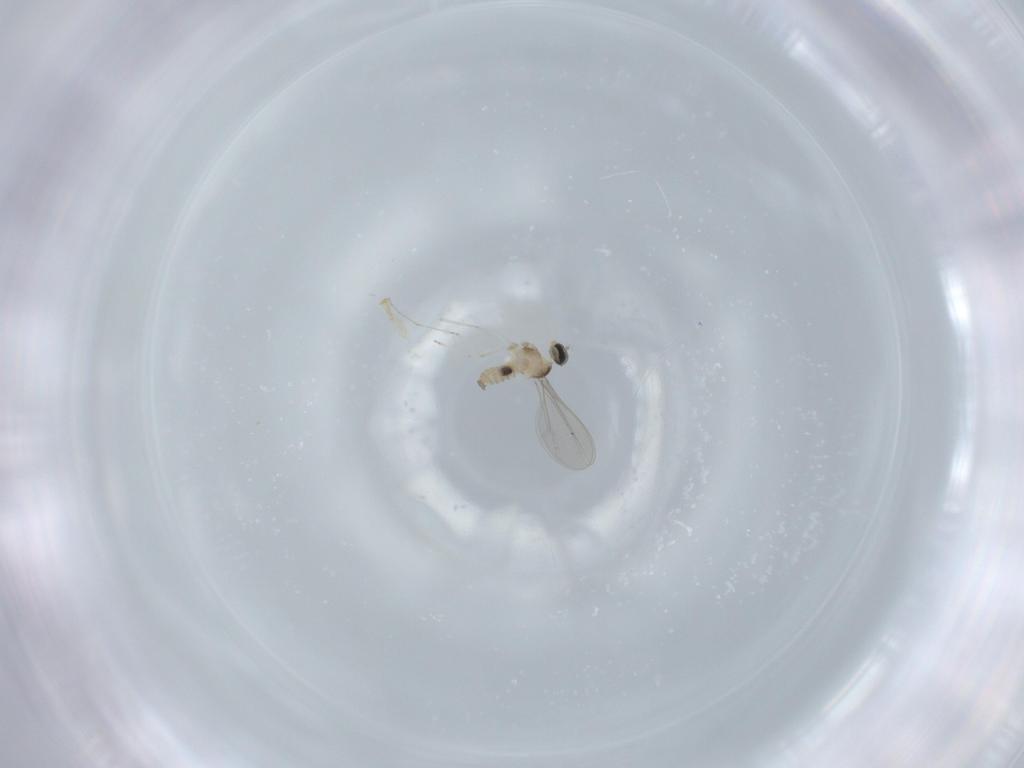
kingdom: Animalia
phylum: Arthropoda
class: Insecta
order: Diptera
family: Cecidomyiidae
